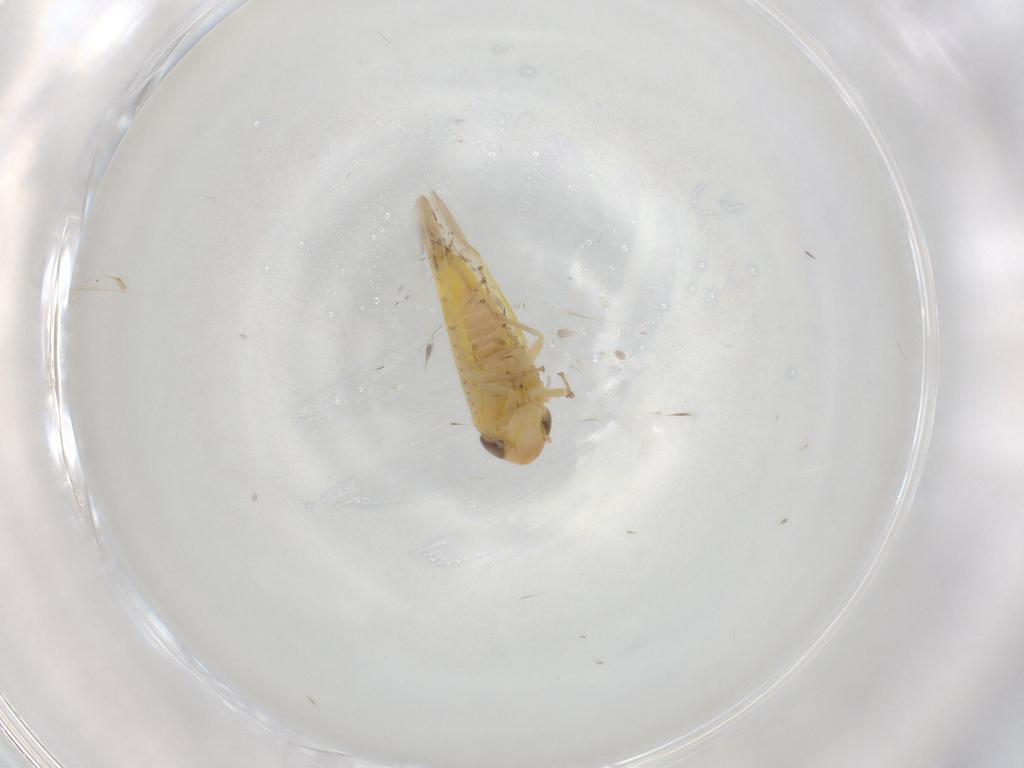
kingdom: Animalia
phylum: Arthropoda
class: Insecta
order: Hemiptera
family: Cicadellidae
